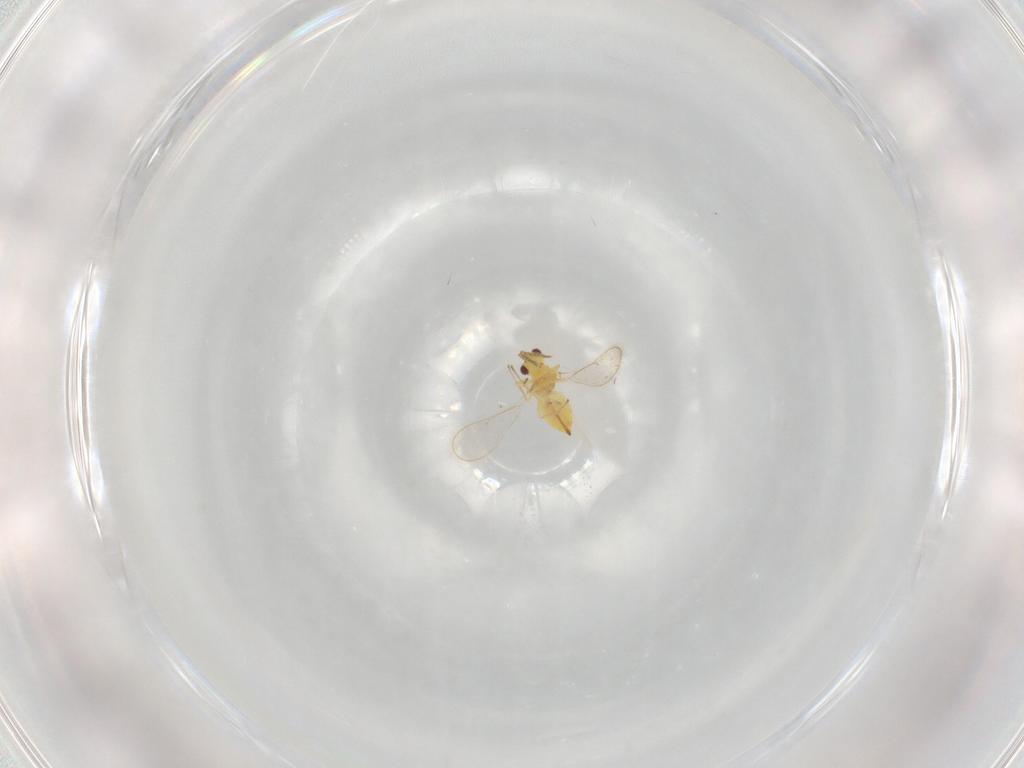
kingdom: Animalia
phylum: Arthropoda
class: Insecta
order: Hymenoptera
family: Eulophidae
